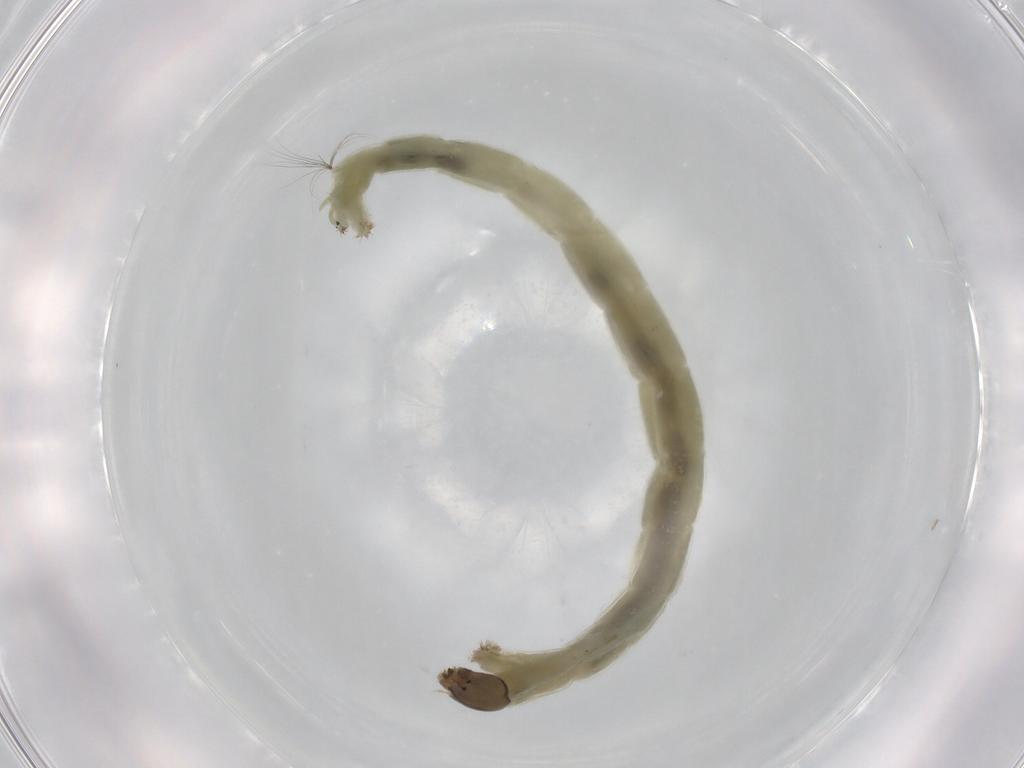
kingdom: Animalia
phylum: Arthropoda
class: Insecta
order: Diptera
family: Chironomidae
